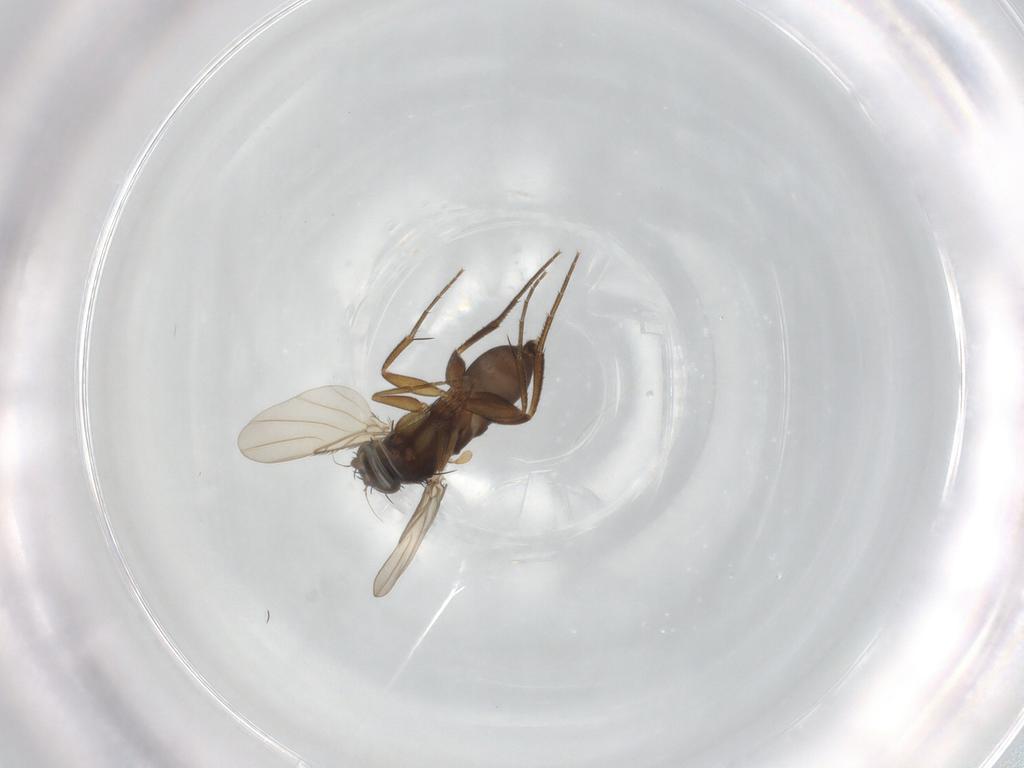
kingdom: Animalia
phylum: Arthropoda
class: Insecta
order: Diptera
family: Phoridae
